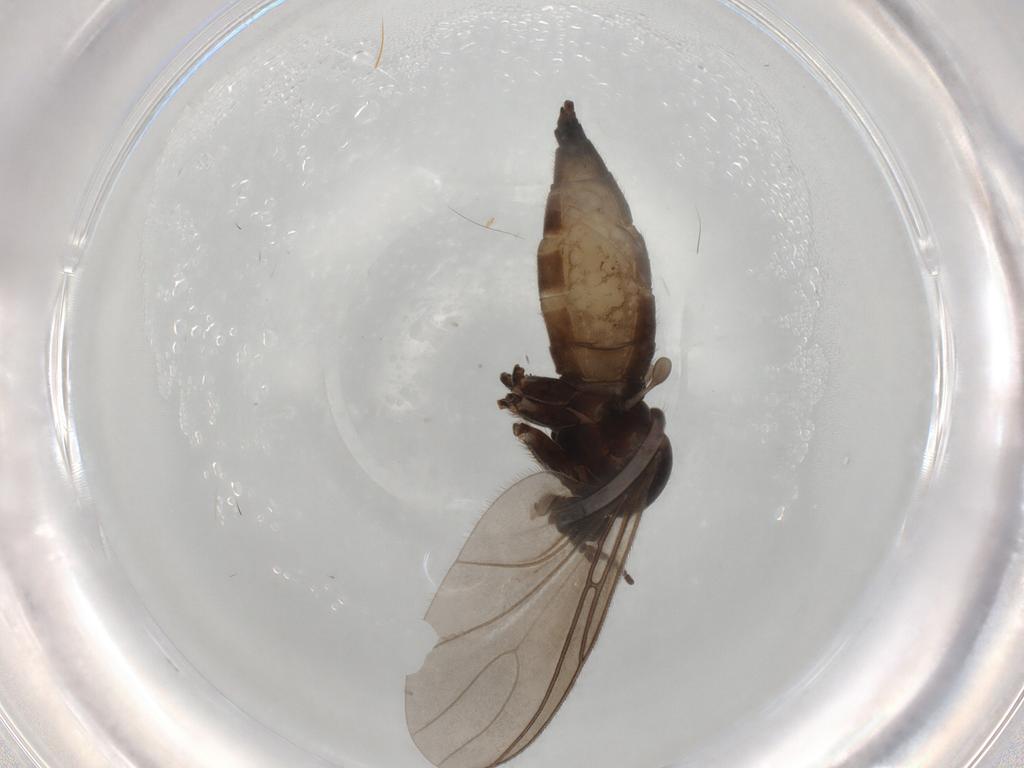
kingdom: Animalia
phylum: Arthropoda
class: Insecta
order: Diptera
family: Sciaridae
